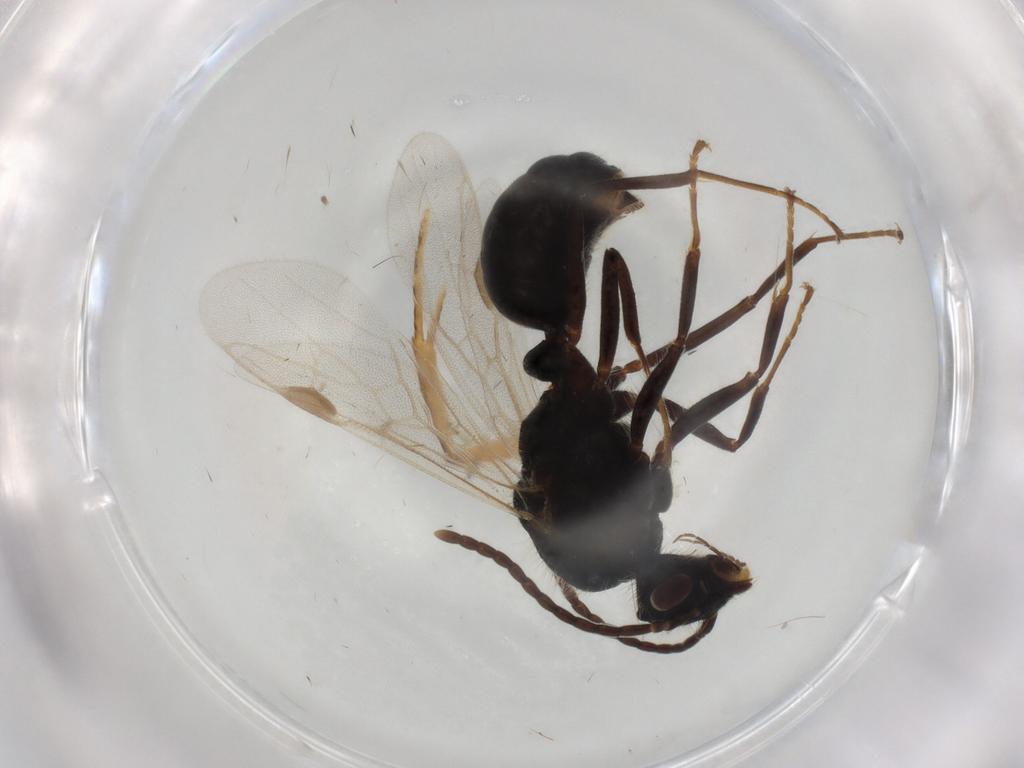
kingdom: Animalia
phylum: Arthropoda
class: Insecta
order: Hymenoptera
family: Formicidae
